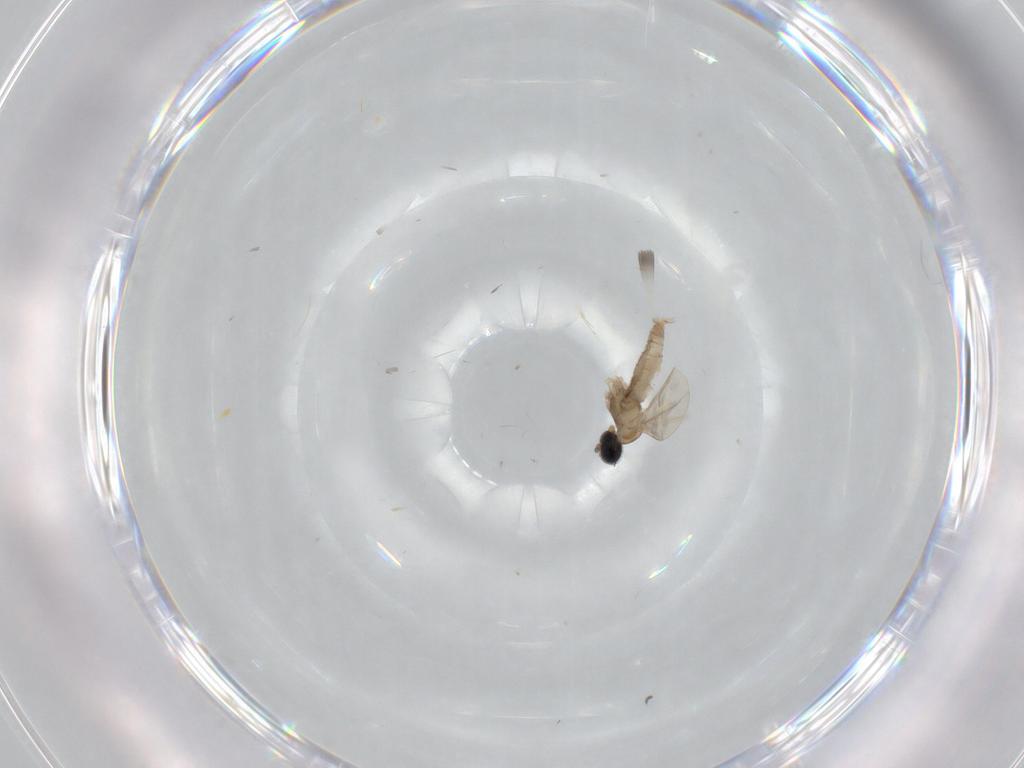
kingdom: Animalia
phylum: Arthropoda
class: Insecta
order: Diptera
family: Cecidomyiidae
